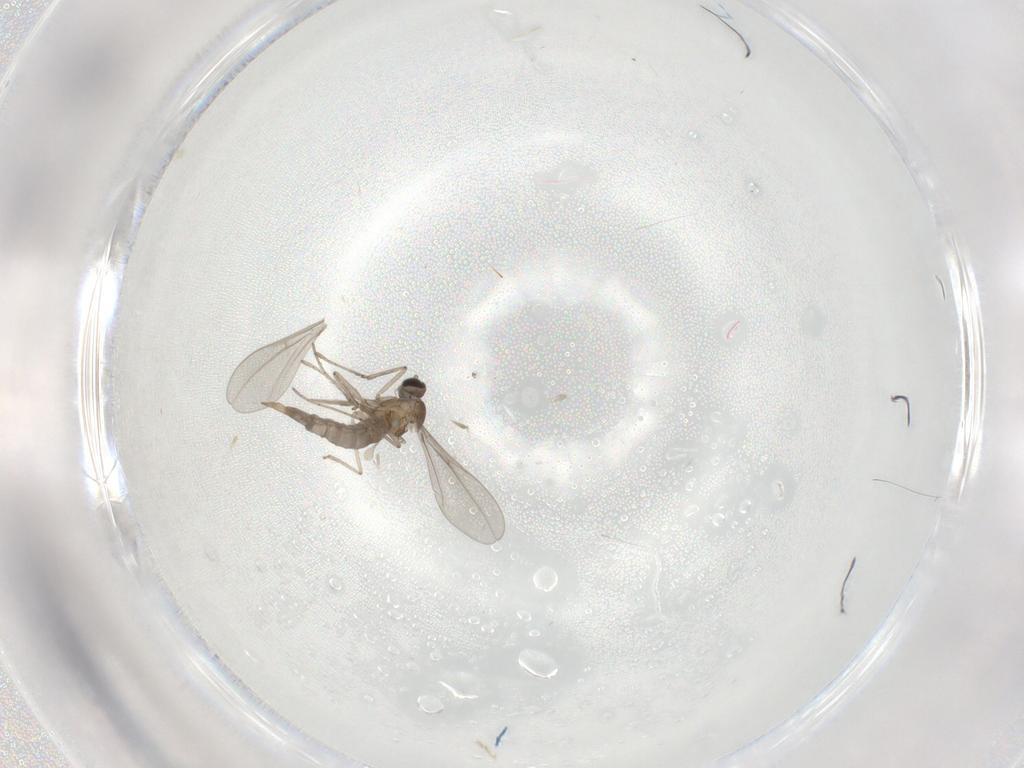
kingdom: Animalia
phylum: Arthropoda
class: Insecta
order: Diptera
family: Cecidomyiidae
